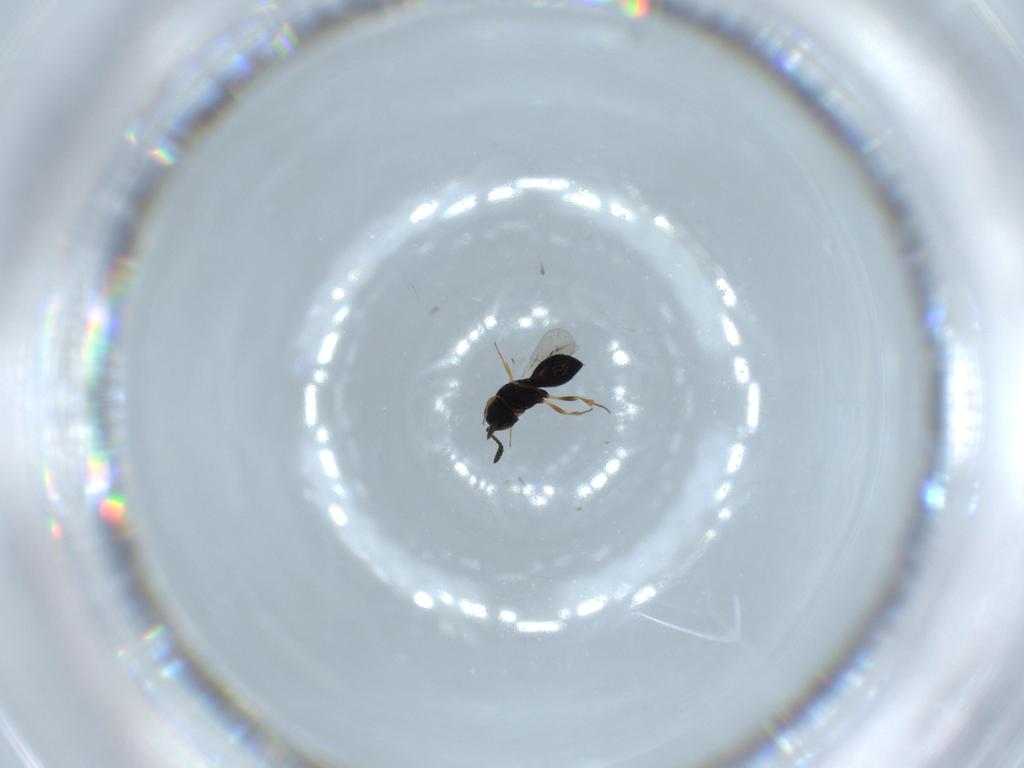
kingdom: Animalia
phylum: Arthropoda
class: Insecta
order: Hymenoptera
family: Scelionidae
